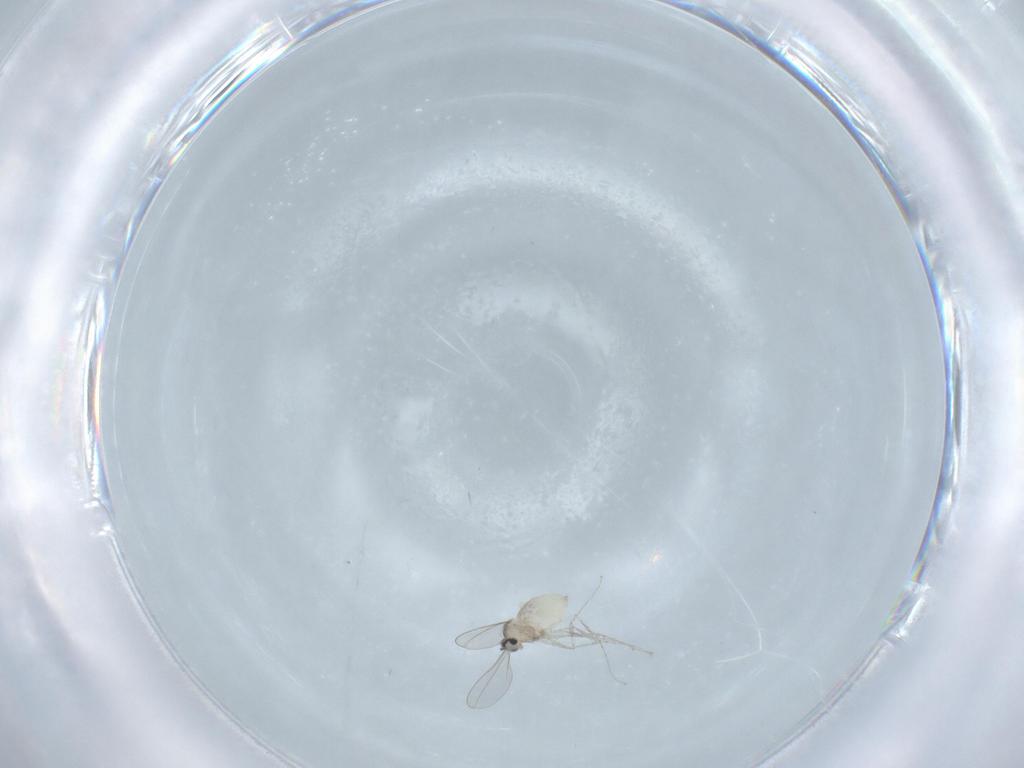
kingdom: Animalia
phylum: Arthropoda
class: Insecta
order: Diptera
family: Cecidomyiidae
